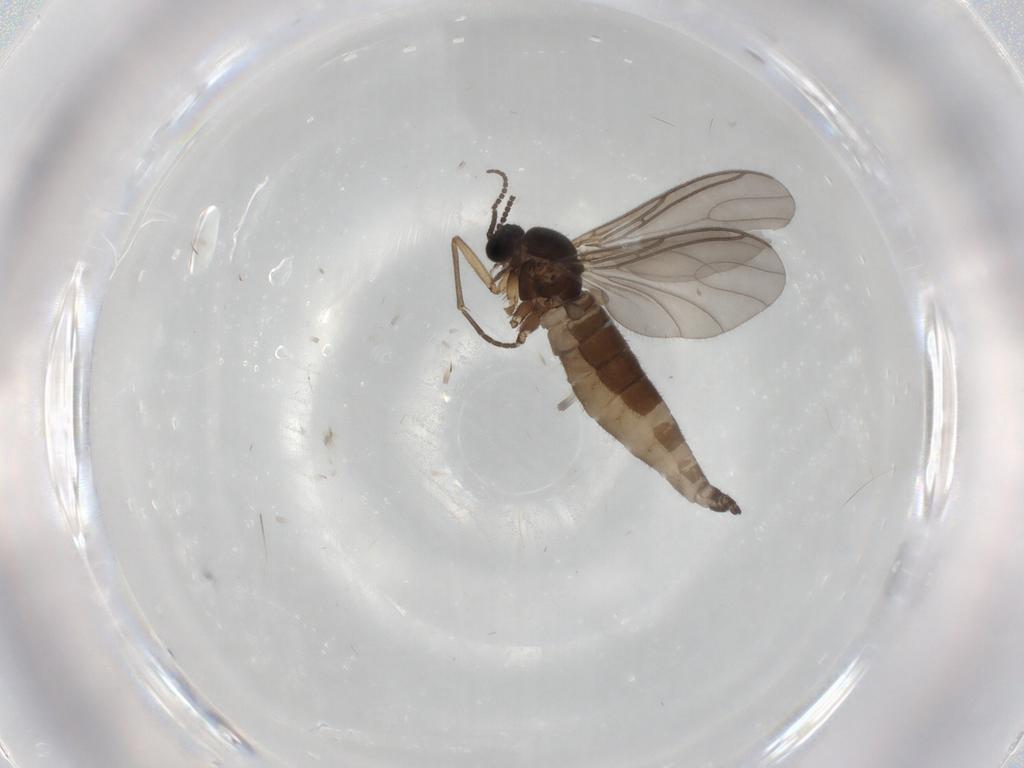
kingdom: Animalia
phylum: Arthropoda
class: Insecta
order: Diptera
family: Sciaridae
